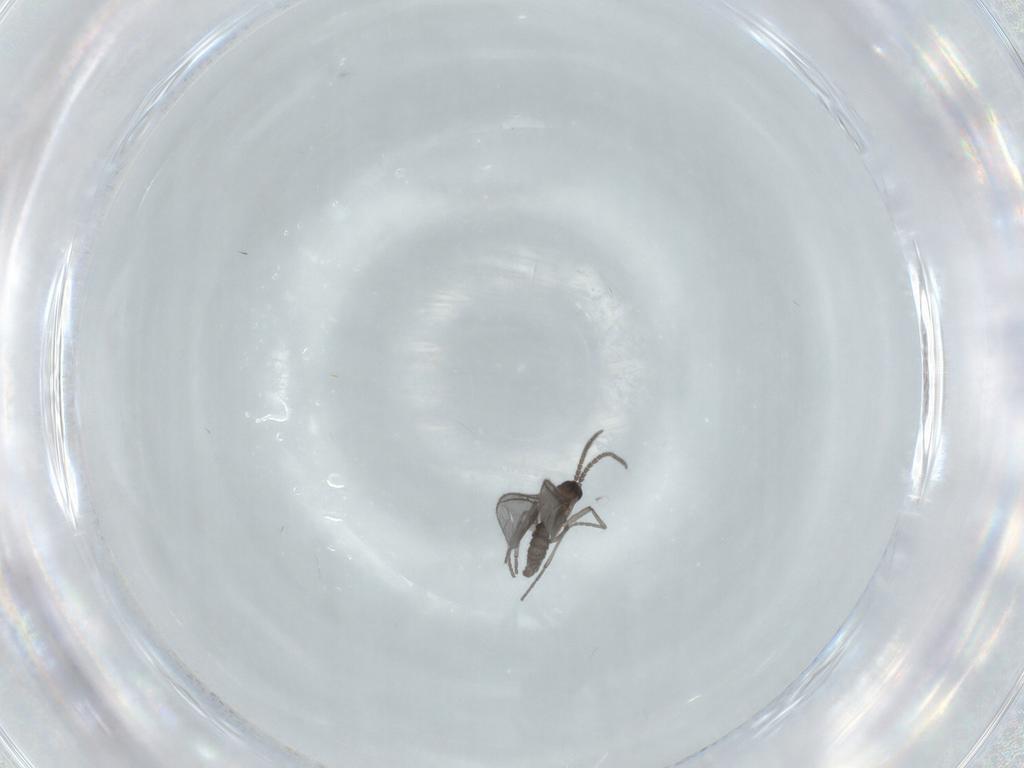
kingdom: Animalia
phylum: Arthropoda
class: Insecta
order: Diptera
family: Sciaridae
